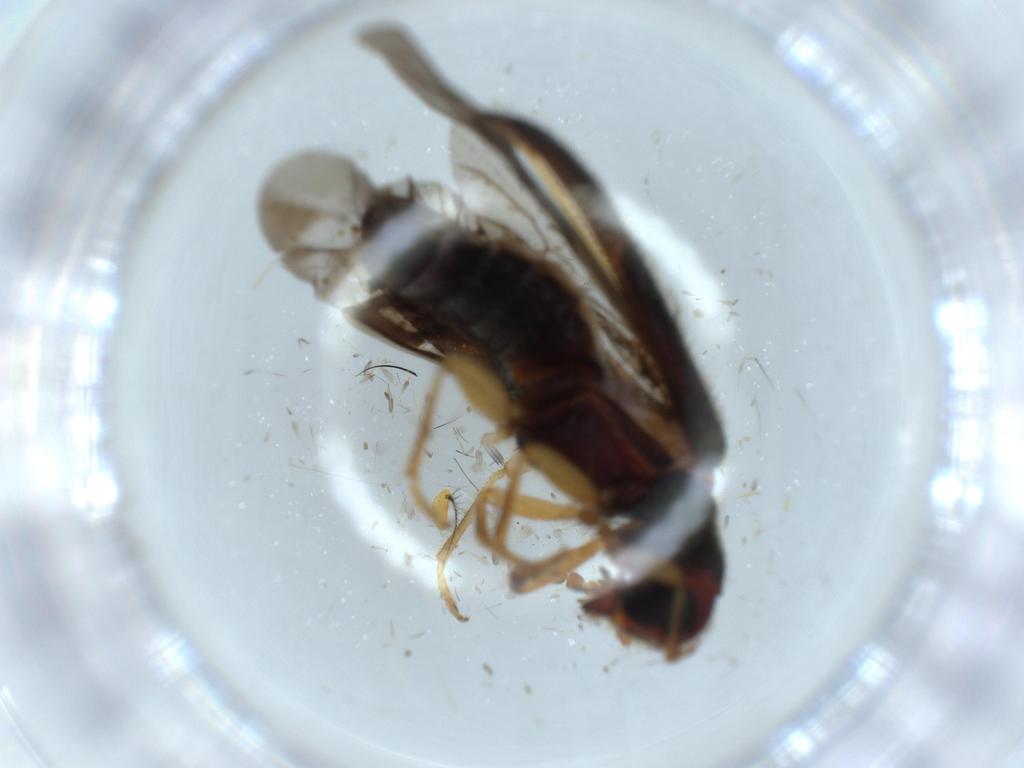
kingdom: Animalia
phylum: Arthropoda
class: Insecta
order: Coleoptera
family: Cleridae
